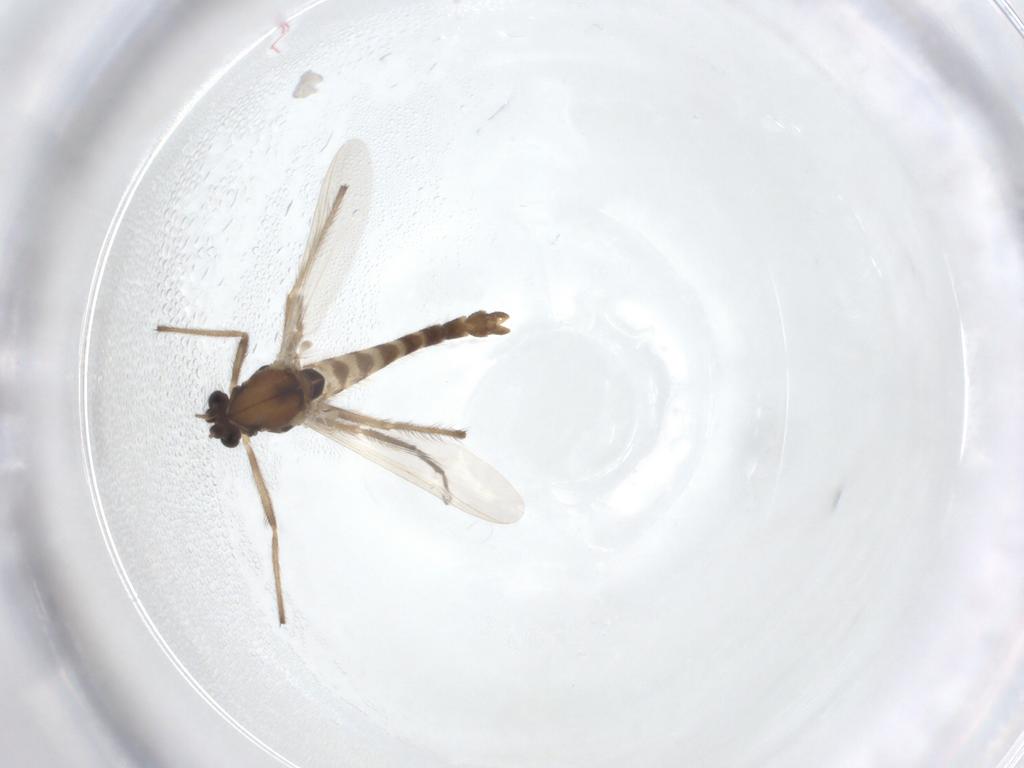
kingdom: Animalia
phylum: Arthropoda
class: Insecta
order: Diptera
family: Chironomidae
